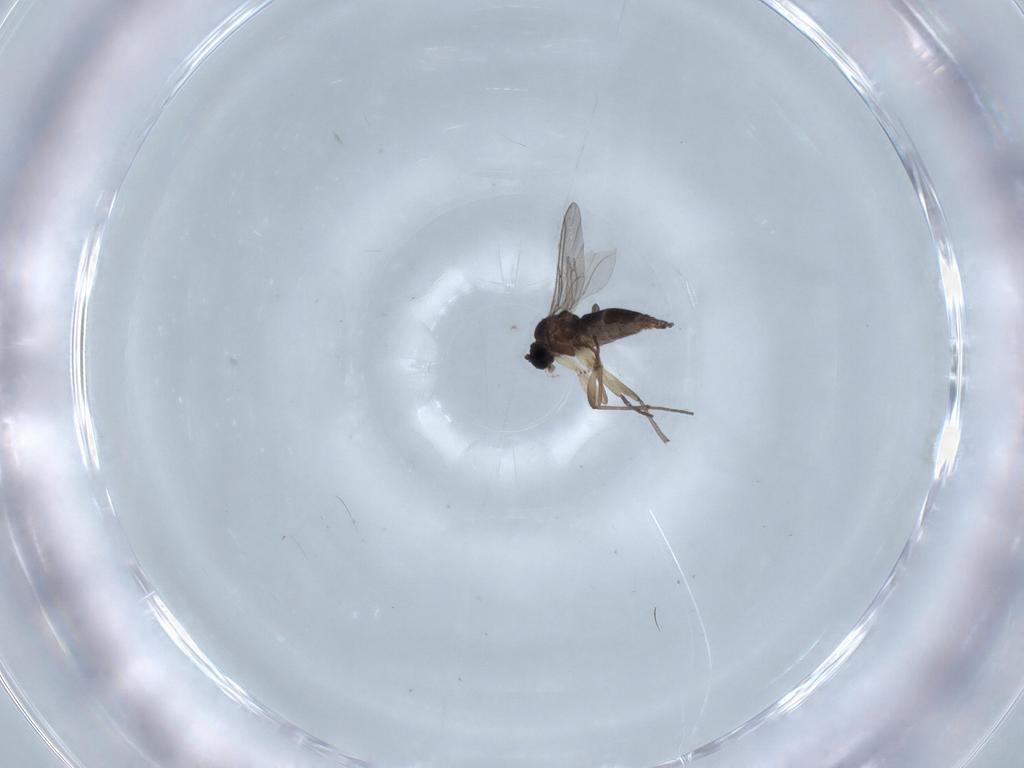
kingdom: Animalia
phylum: Arthropoda
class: Insecta
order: Diptera
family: Sciaridae
